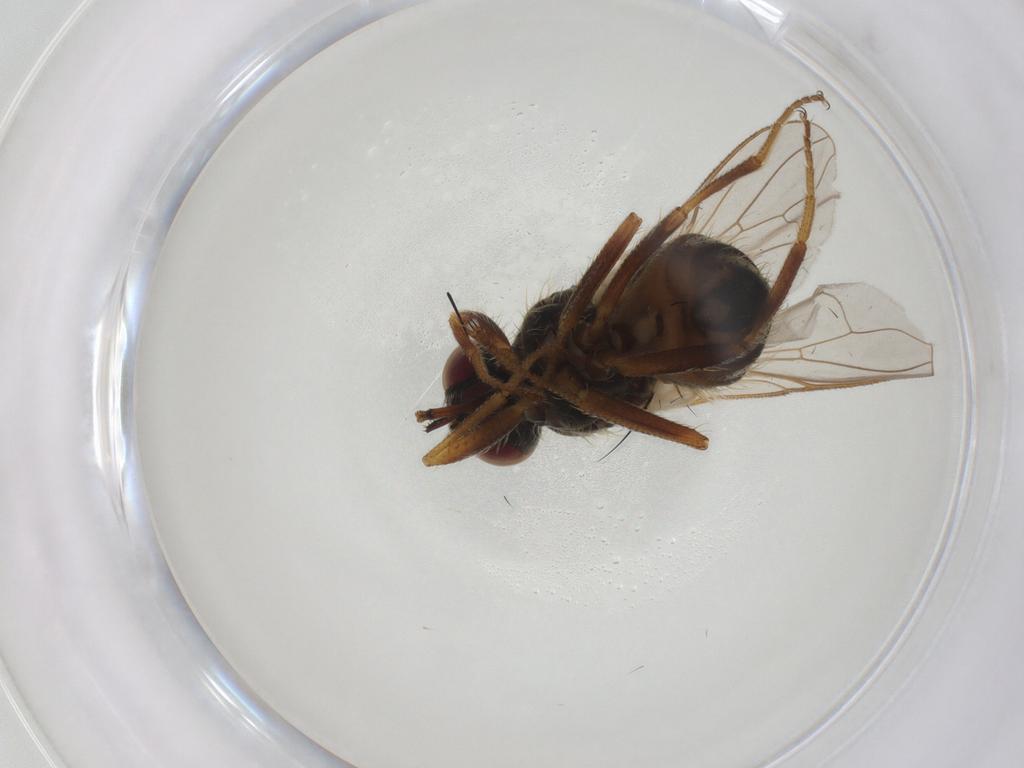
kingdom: Animalia
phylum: Arthropoda
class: Insecta
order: Diptera
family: Muscidae
